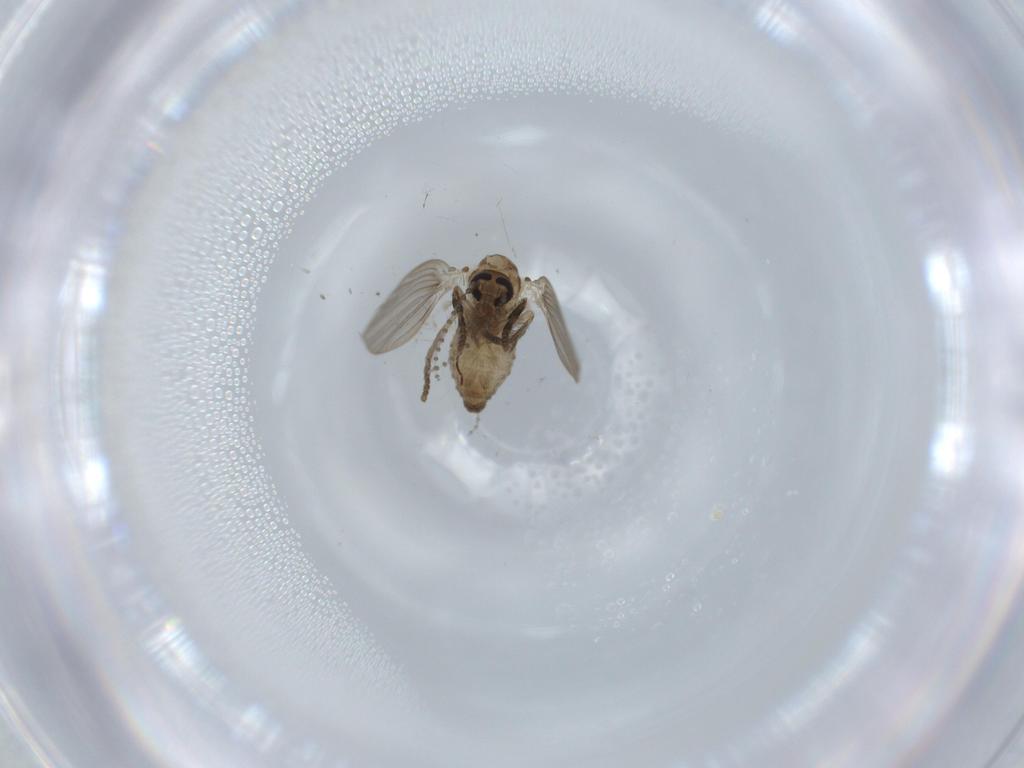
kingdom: Animalia
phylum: Arthropoda
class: Insecta
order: Diptera
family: Psychodidae
